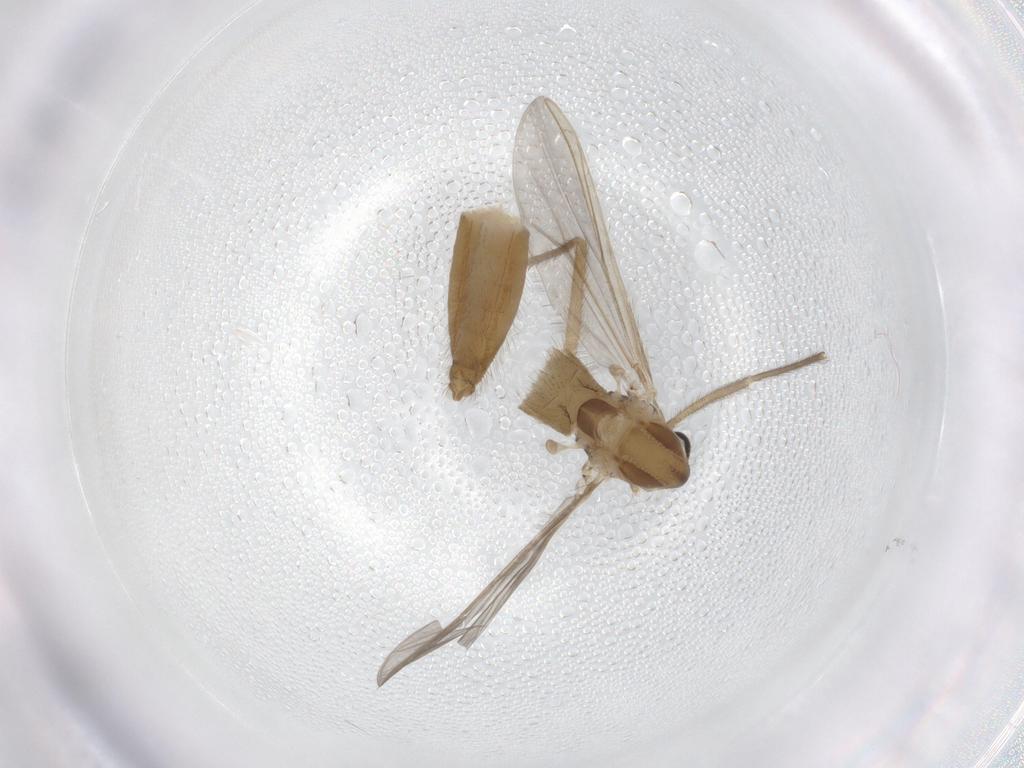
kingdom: Animalia
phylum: Arthropoda
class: Insecta
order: Diptera
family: Chironomidae
